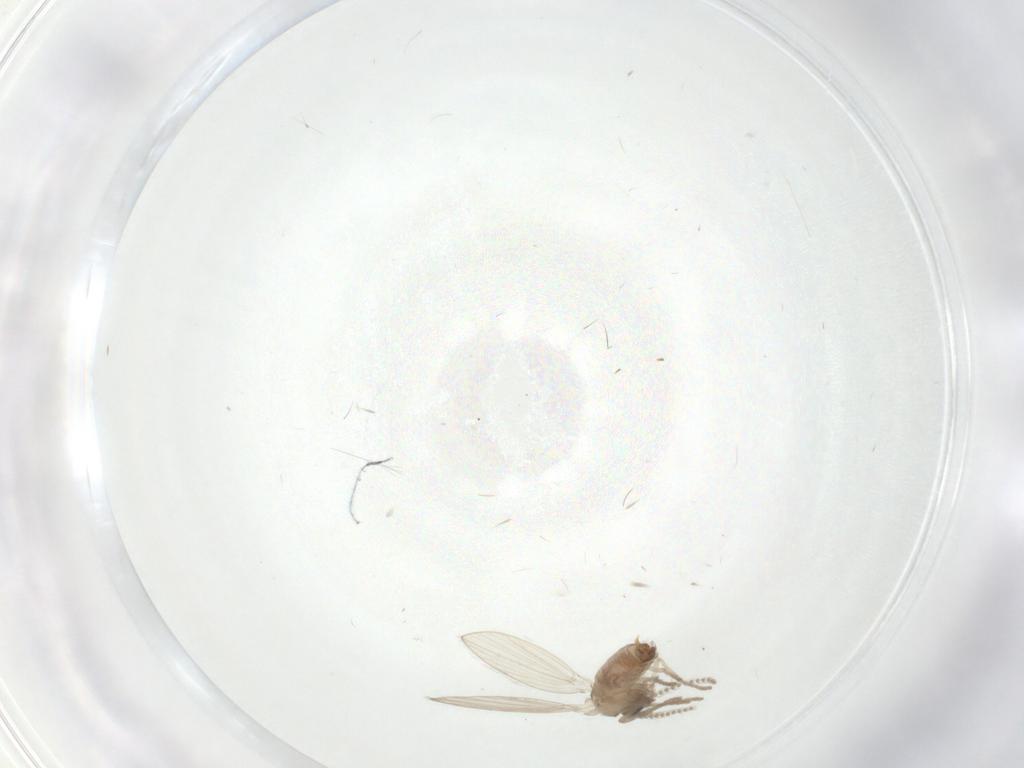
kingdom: Animalia
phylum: Arthropoda
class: Insecta
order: Diptera
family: Psychodidae
